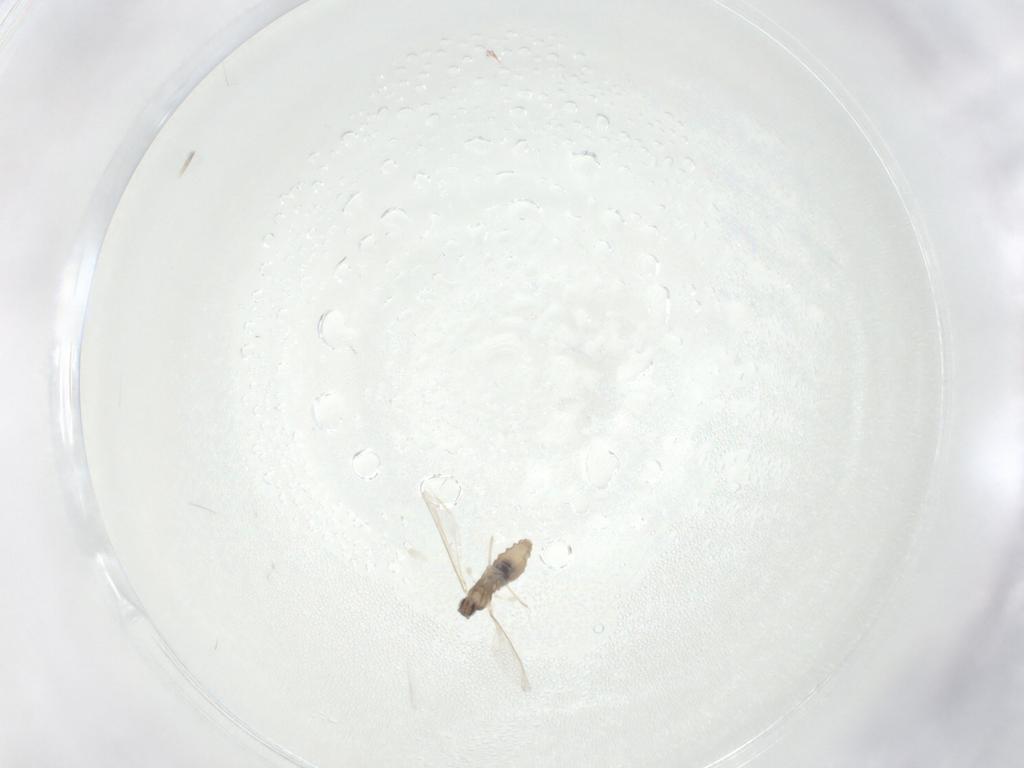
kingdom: Animalia
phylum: Arthropoda
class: Insecta
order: Diptera
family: Cecidomyiidae
